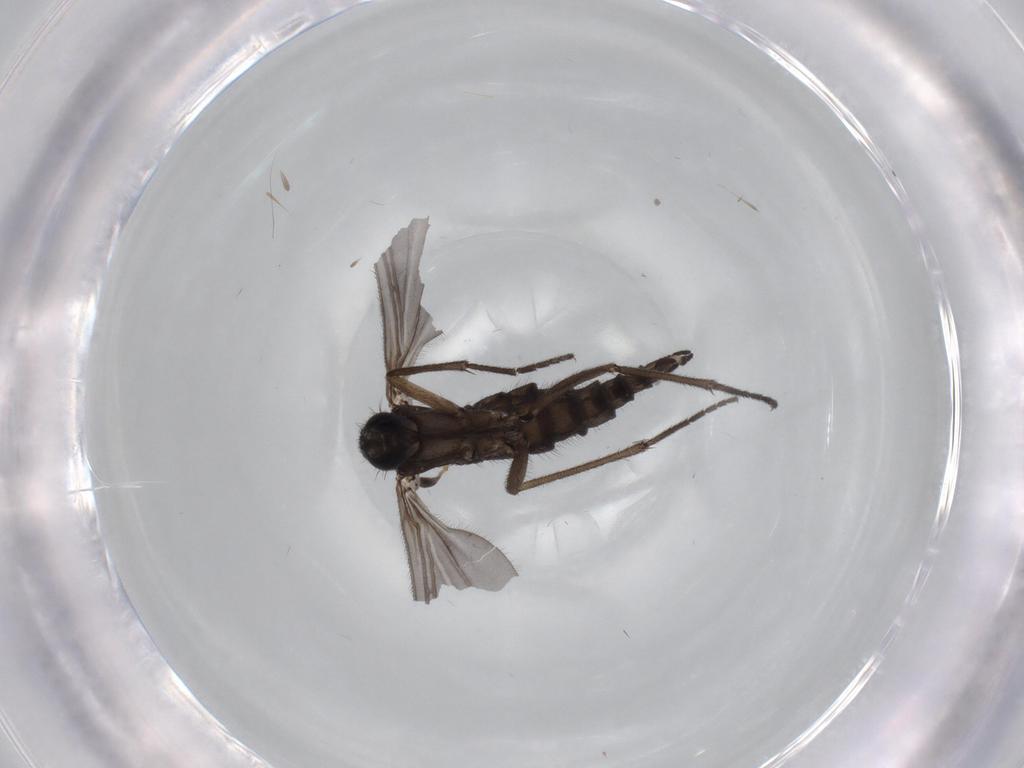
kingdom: Animalia
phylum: Arthropoda
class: Insecta
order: Diptera
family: Sciaridae
